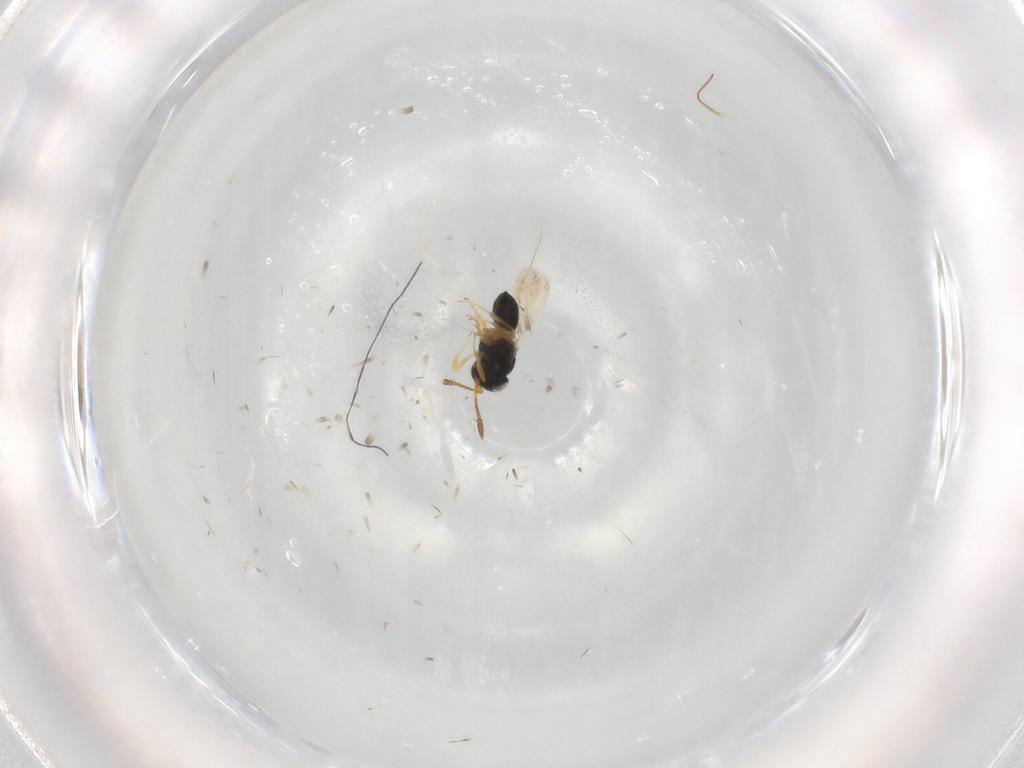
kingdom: Animalia
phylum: Arthropoda
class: Insecta
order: Hymenoptera
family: Scelionidae
